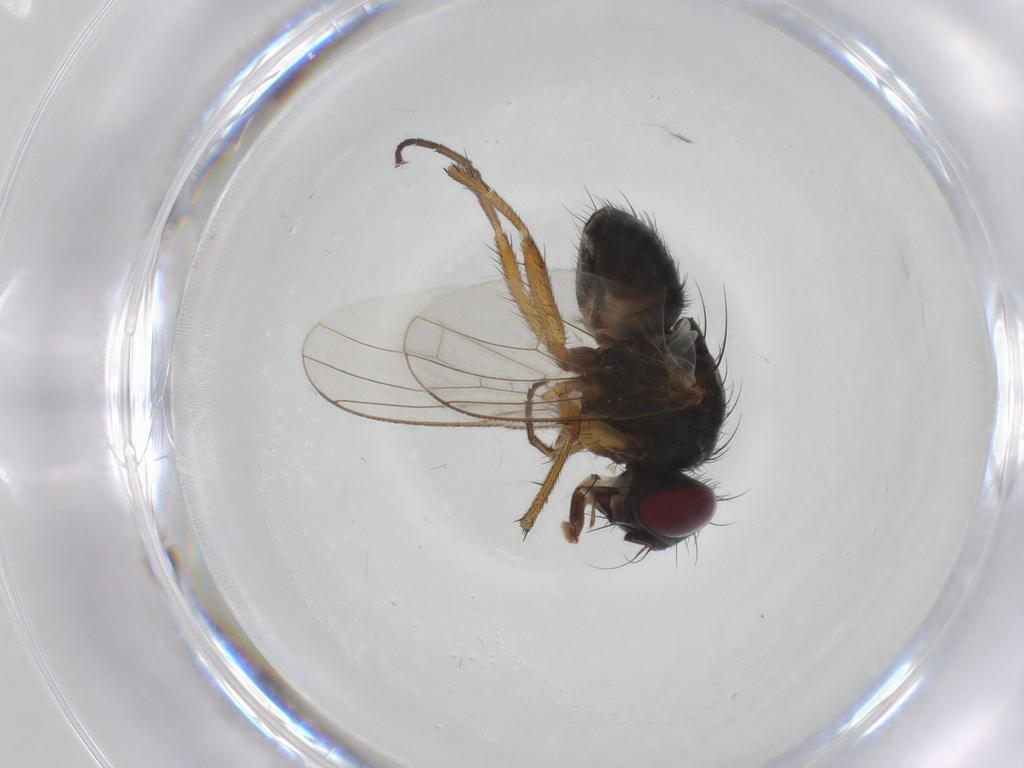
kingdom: Animalia
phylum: Arthropoda
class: Insecta
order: Diptera
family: Muscidae
